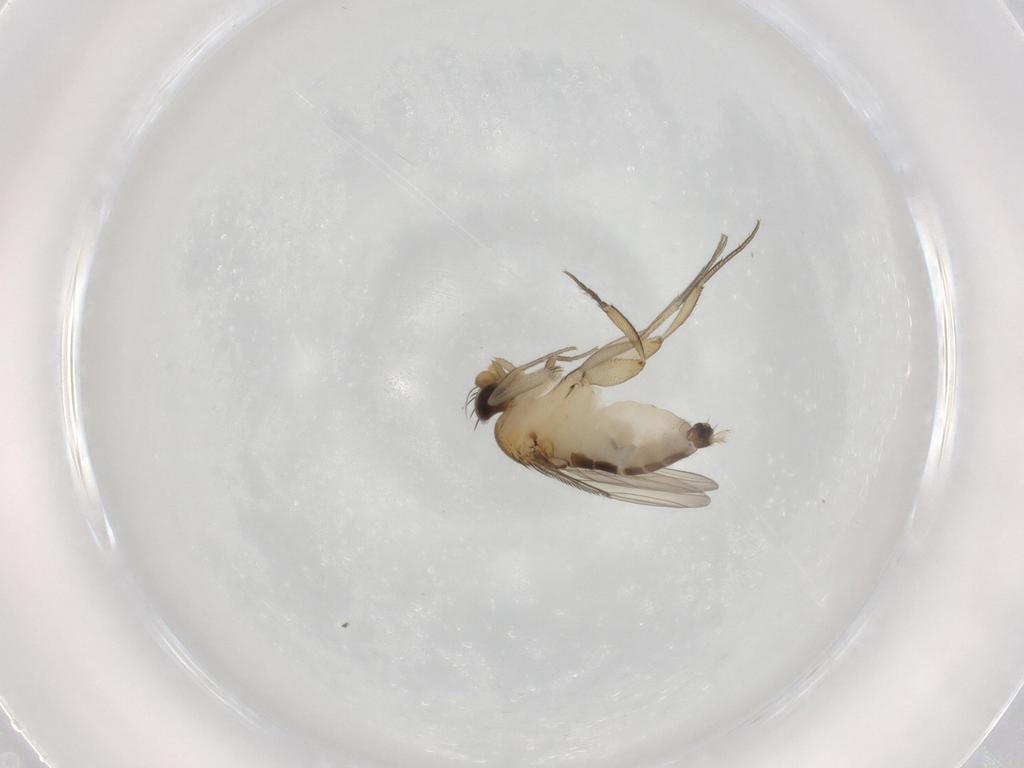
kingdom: Animalia
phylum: Arthropoda
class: Insecta
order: Diptera
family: Phoridae
